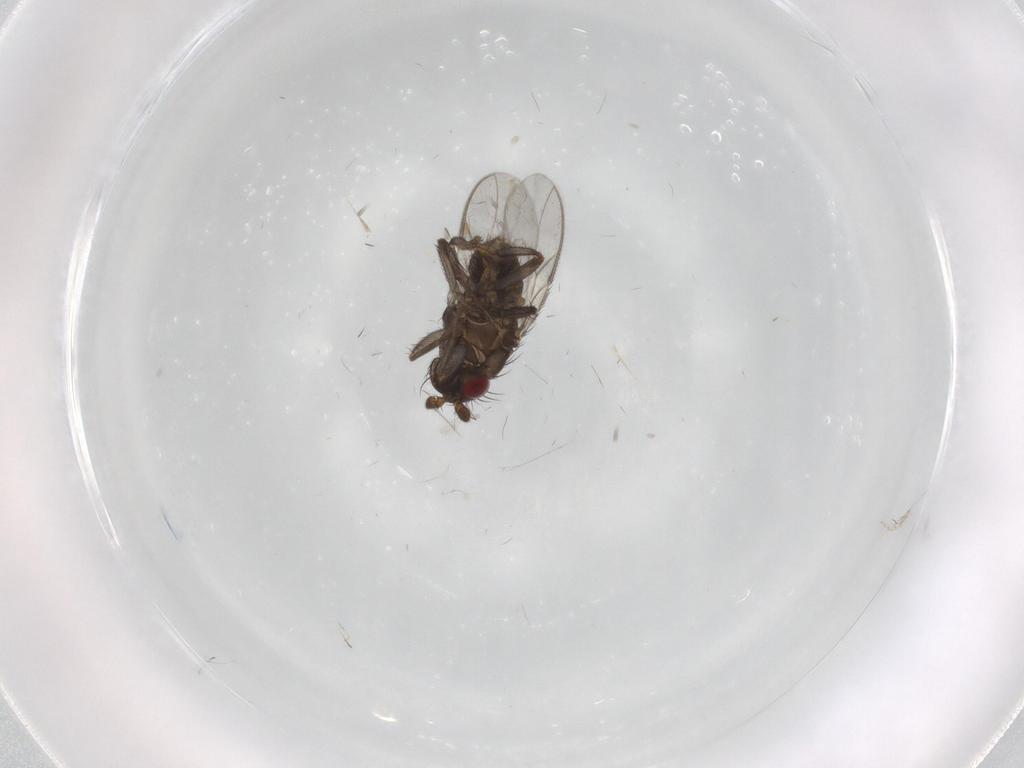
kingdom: Animalia
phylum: Arthropoda
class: Insecta
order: Diptera
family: Sphaeroceridae
